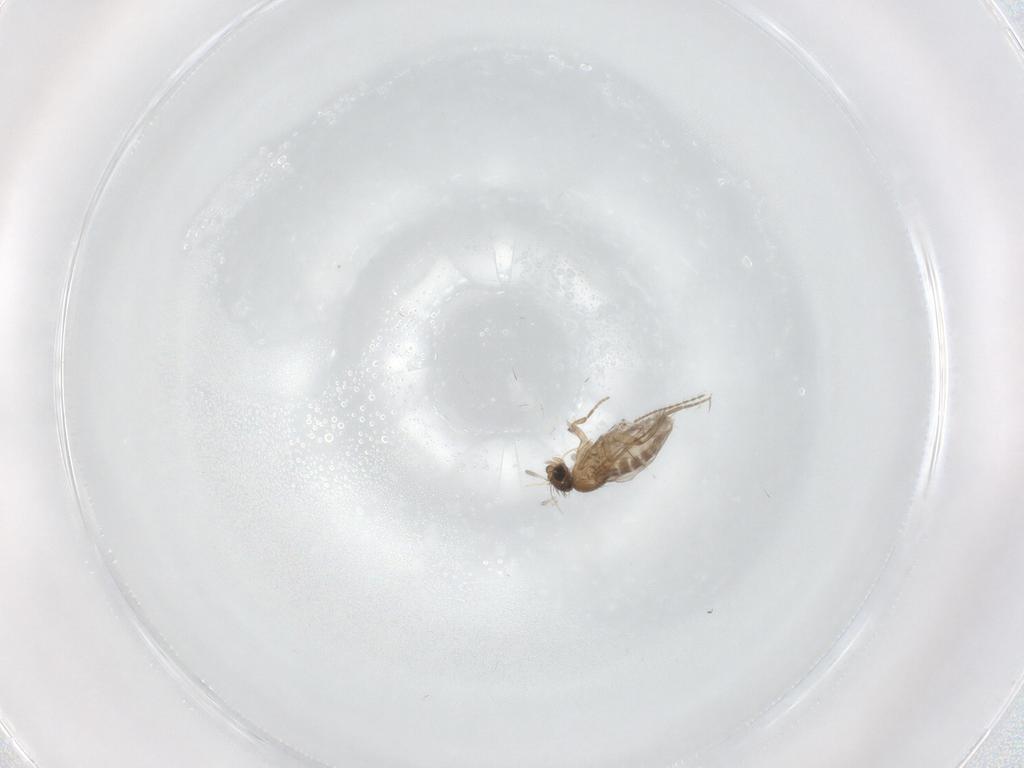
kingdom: Animalia
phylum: Arthropoda
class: Insecta
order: Diptera
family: Ceratopogonidae
